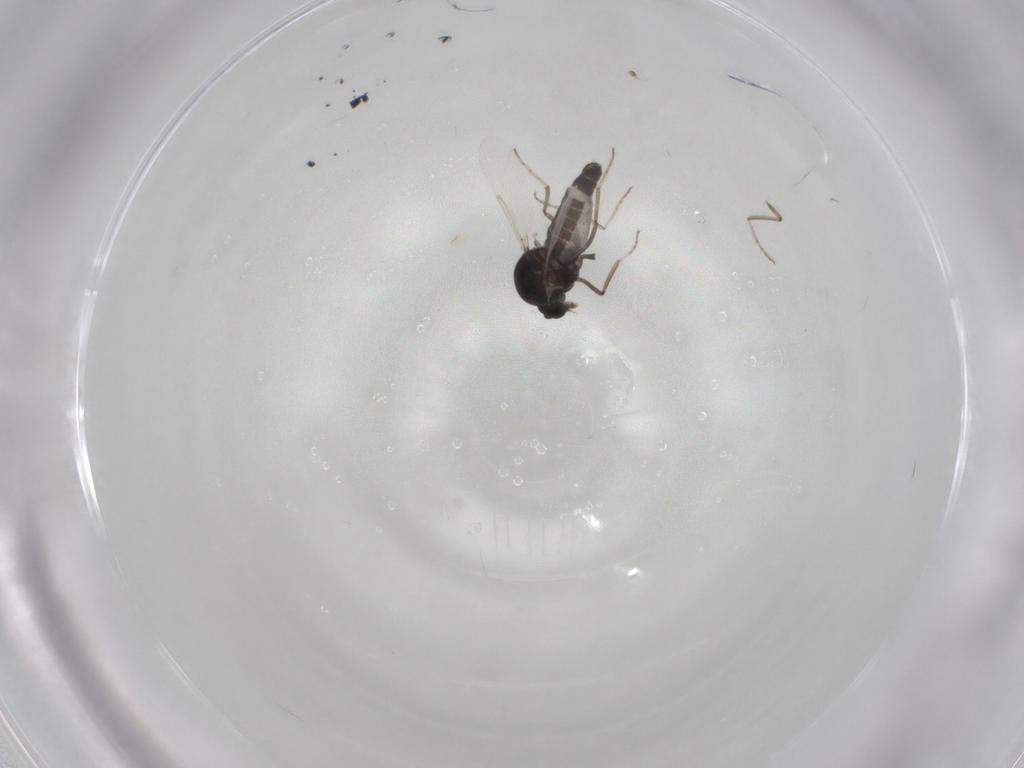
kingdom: Animalia
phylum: Arthropoda
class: Insecta
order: Diptera
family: Ceratopogonidae
